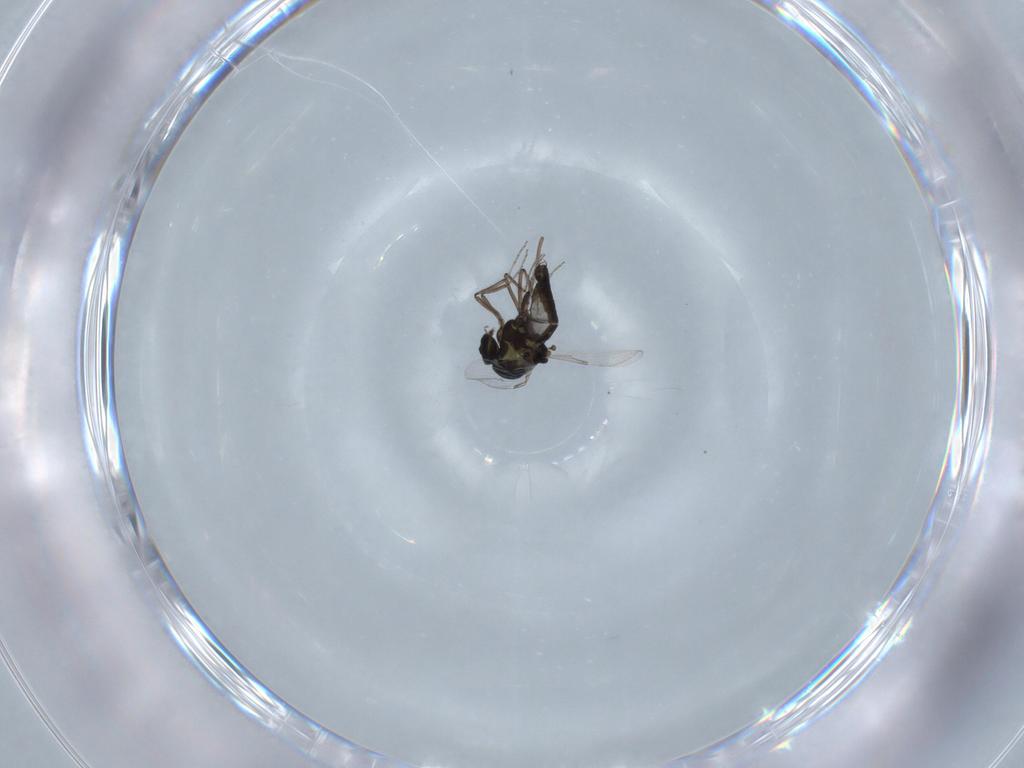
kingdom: Animalia
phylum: Arthropoda
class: Insecta
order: Diptera
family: Ceratopogonidae
